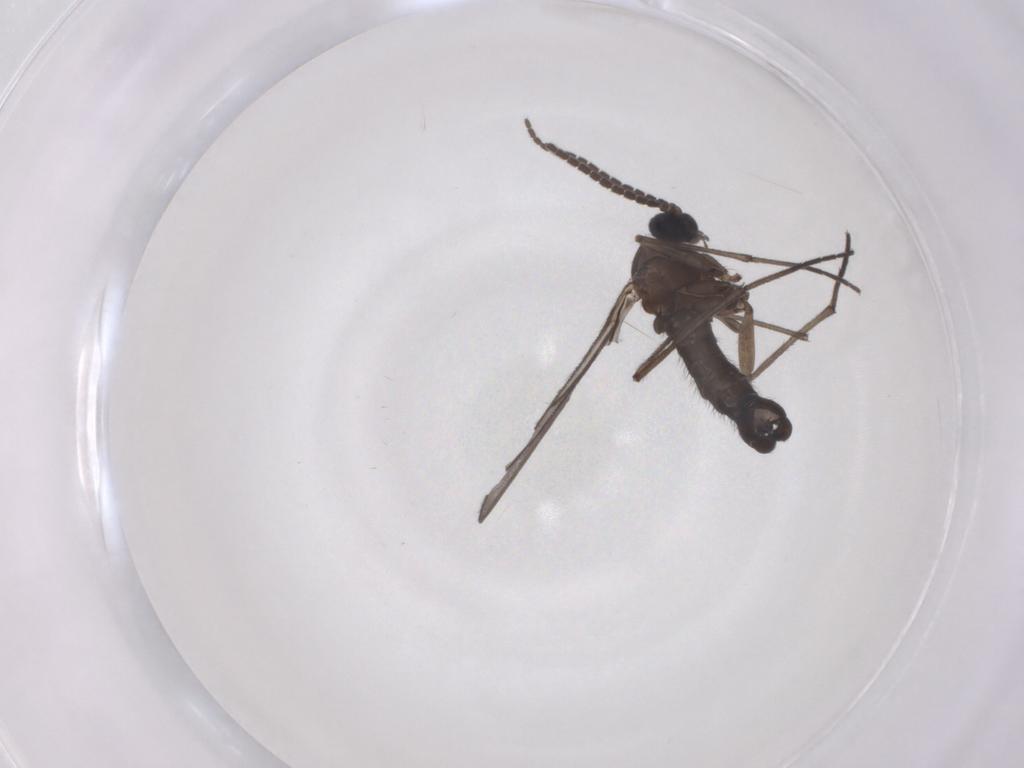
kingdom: Animalia
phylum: Arthropoda
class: Insecta
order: Diptera
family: Sciaridae
